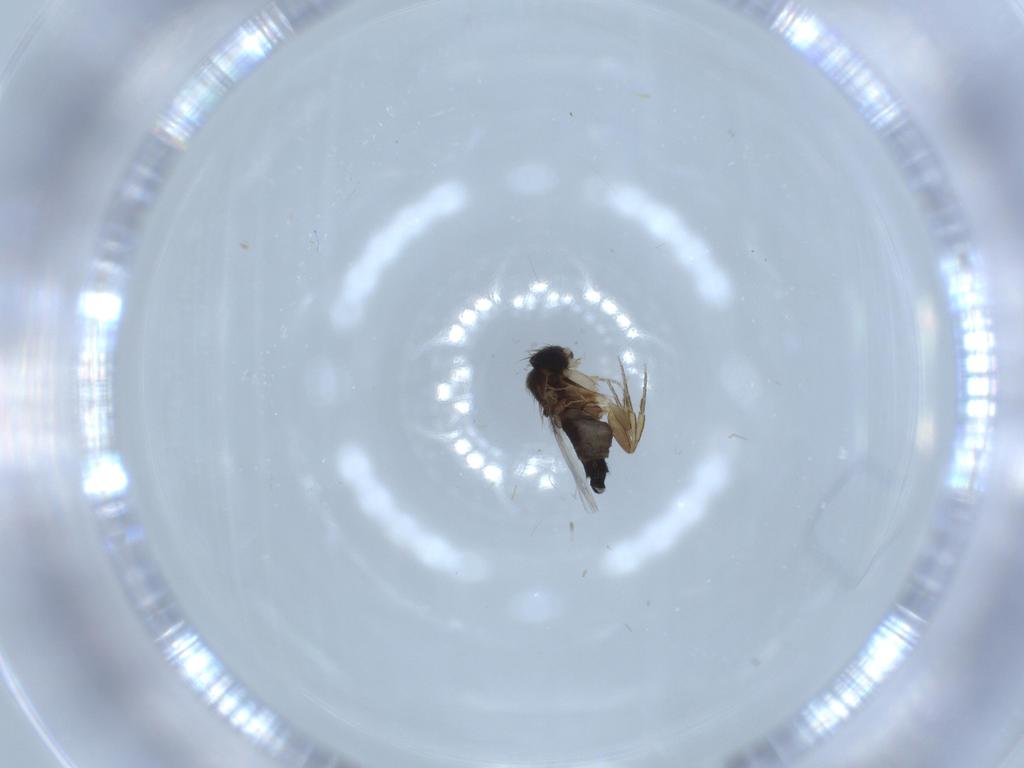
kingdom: Animalia
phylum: Arthropoda
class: Insecta
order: Diptera
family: Phoridae
